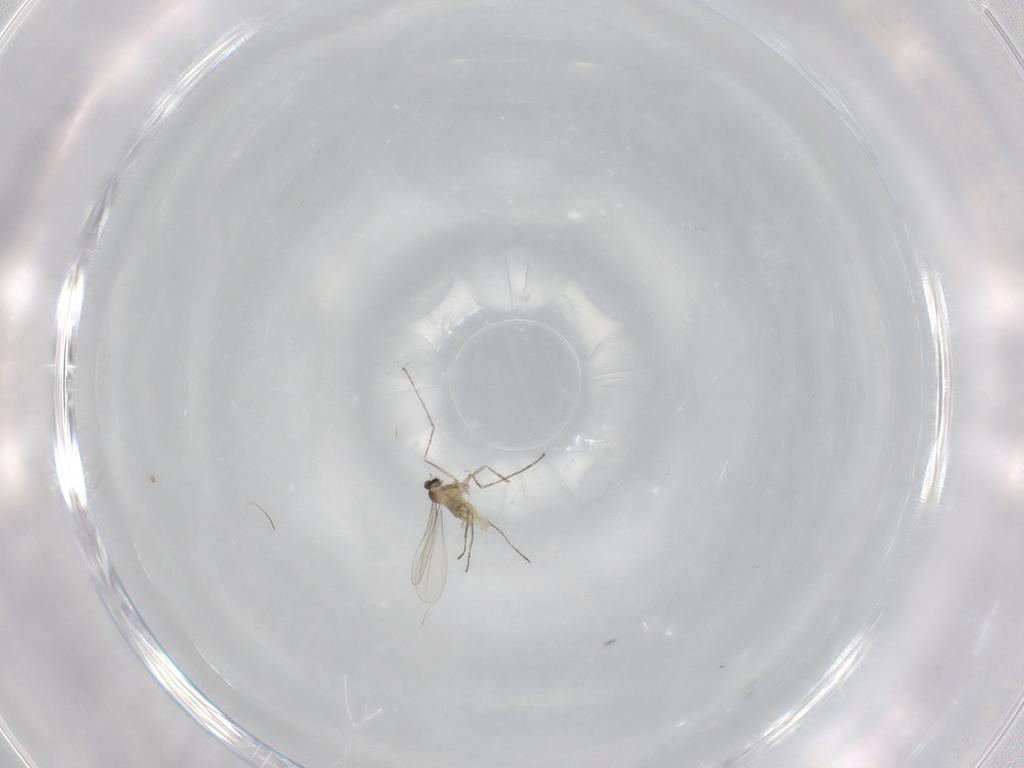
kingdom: Animalia
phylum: Arthropoda
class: Insecta
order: Diptera
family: Cecidomyiidae
